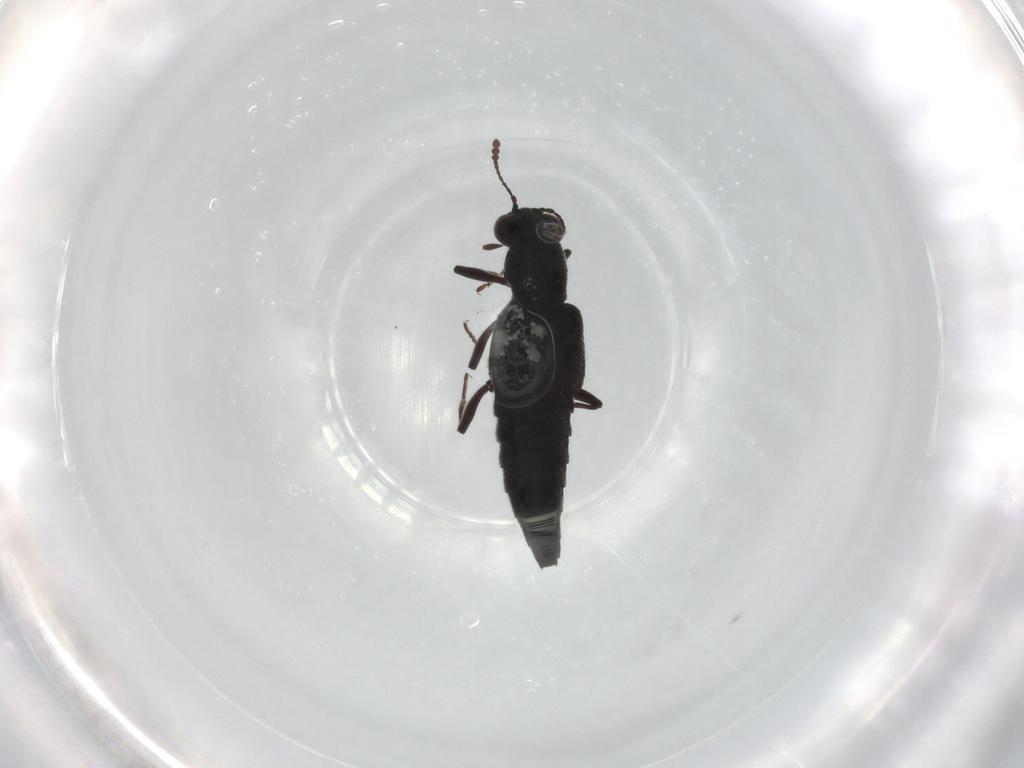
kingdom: Animalia
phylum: Arthropoda
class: Insecta
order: Coleoptera
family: Staphylinidae
